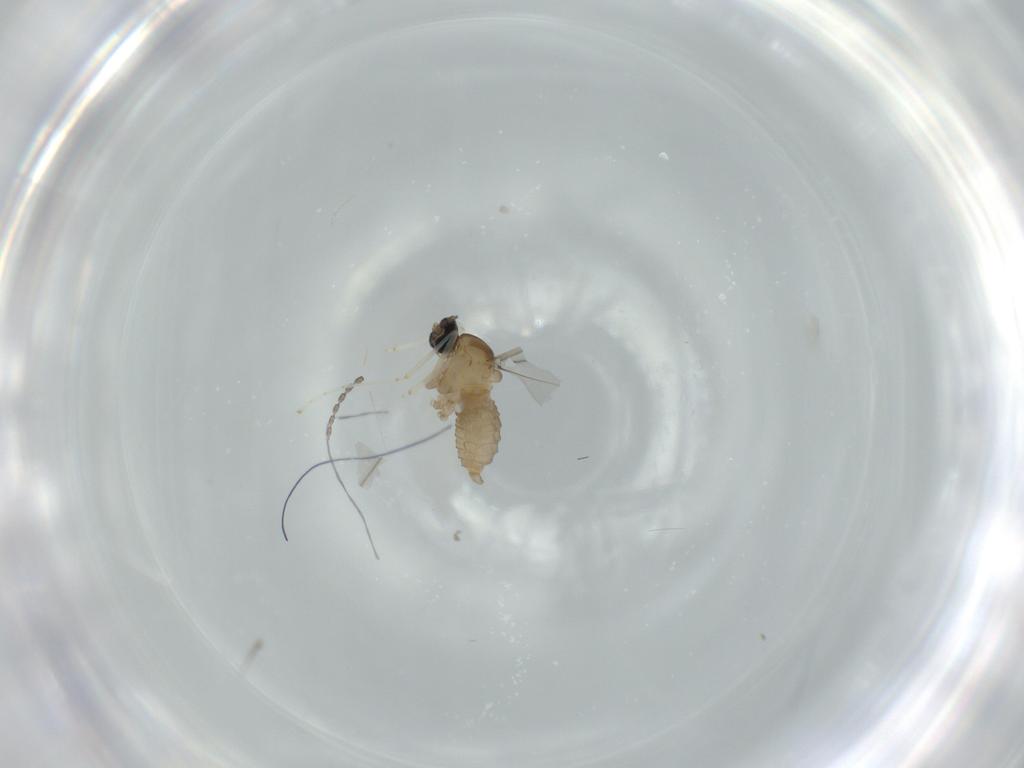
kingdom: Animalia
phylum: Arthropoda
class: Insecta
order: Diptera
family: Cecidomyiidae
